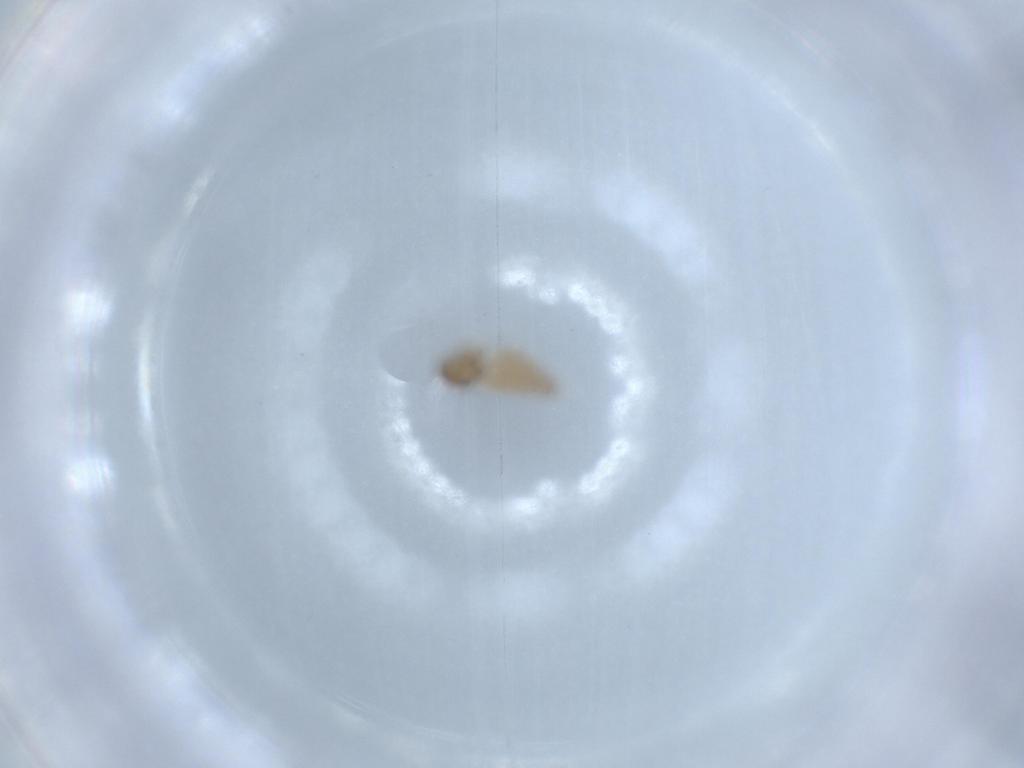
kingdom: Animalia
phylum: Arthropoda
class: Insecta
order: Diptera
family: Cecidomyiidae
